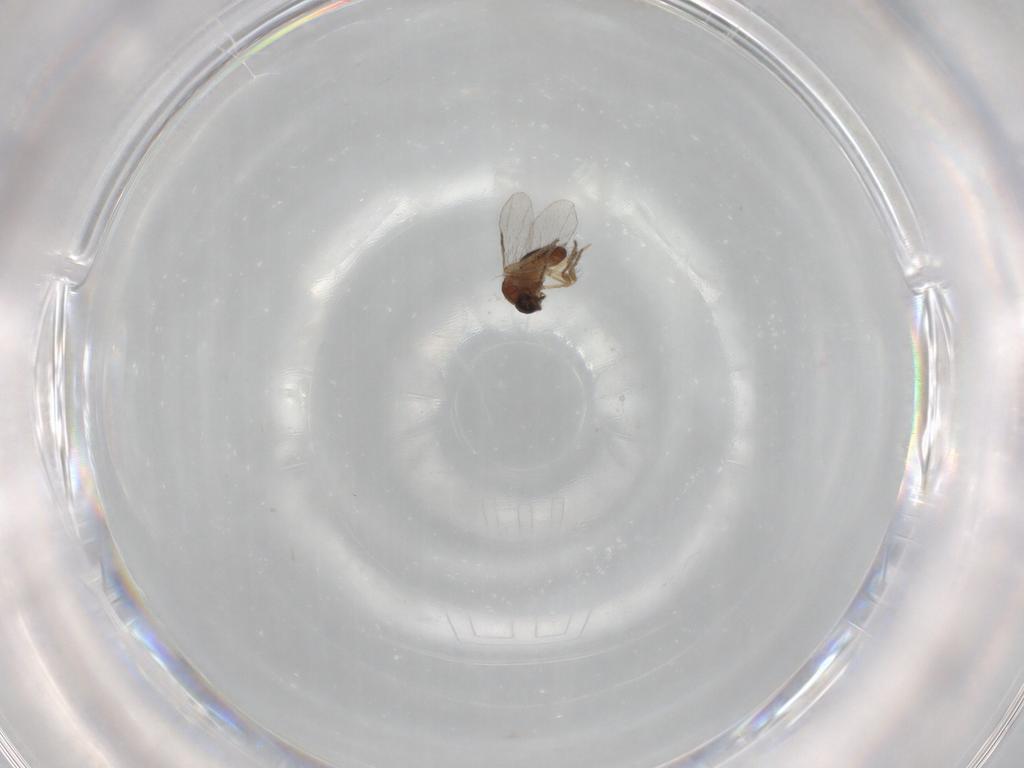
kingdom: Animalia
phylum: Arthropoda
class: Insecta
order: Diptera
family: Ceratopogonidae
